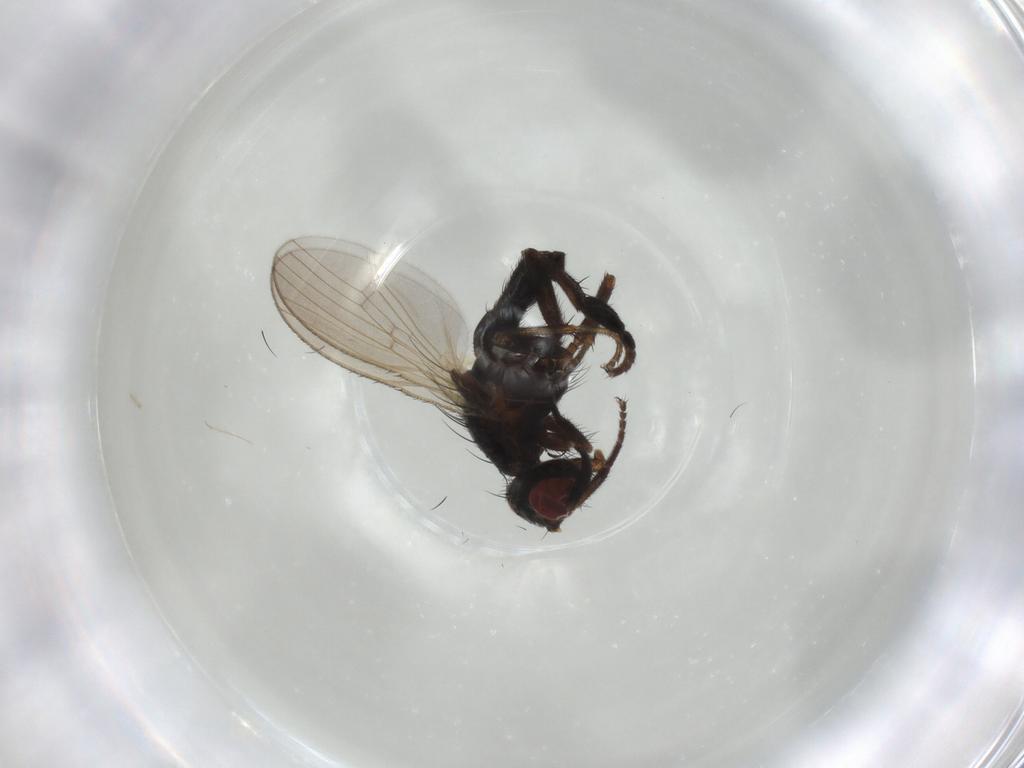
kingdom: Animalia
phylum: Arthropoda
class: Insecta
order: Diptera
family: Heleomyzidae
